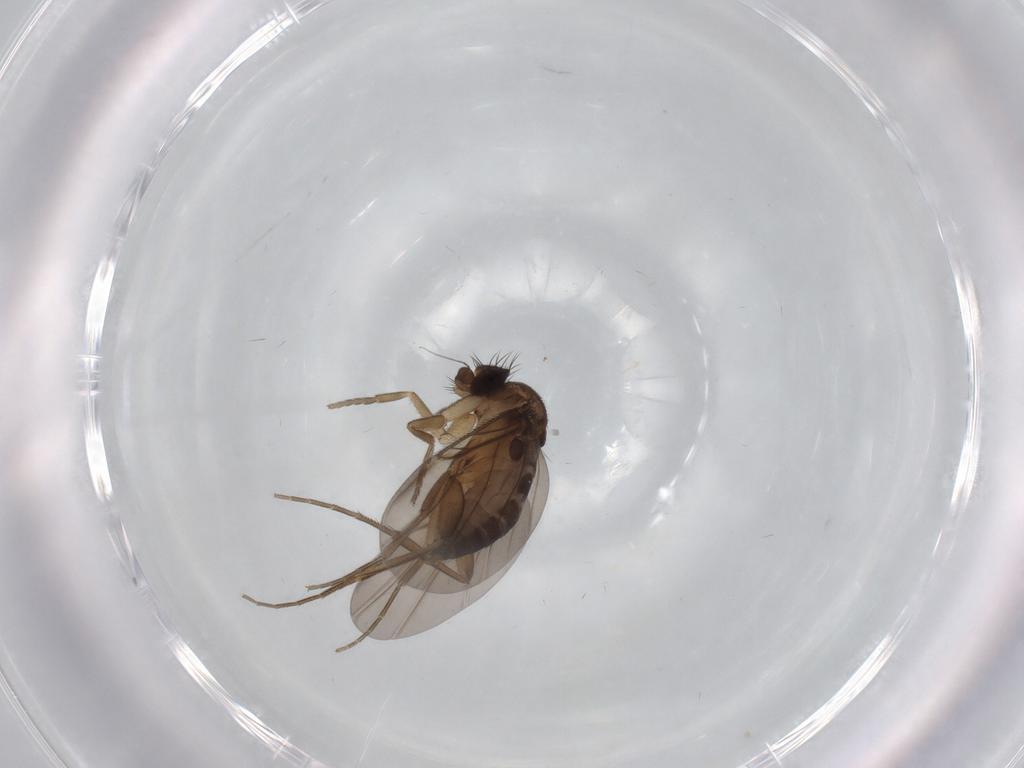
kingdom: Animalia
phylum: Arthropoda
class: Insecta
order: Diptera
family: Phoridae
